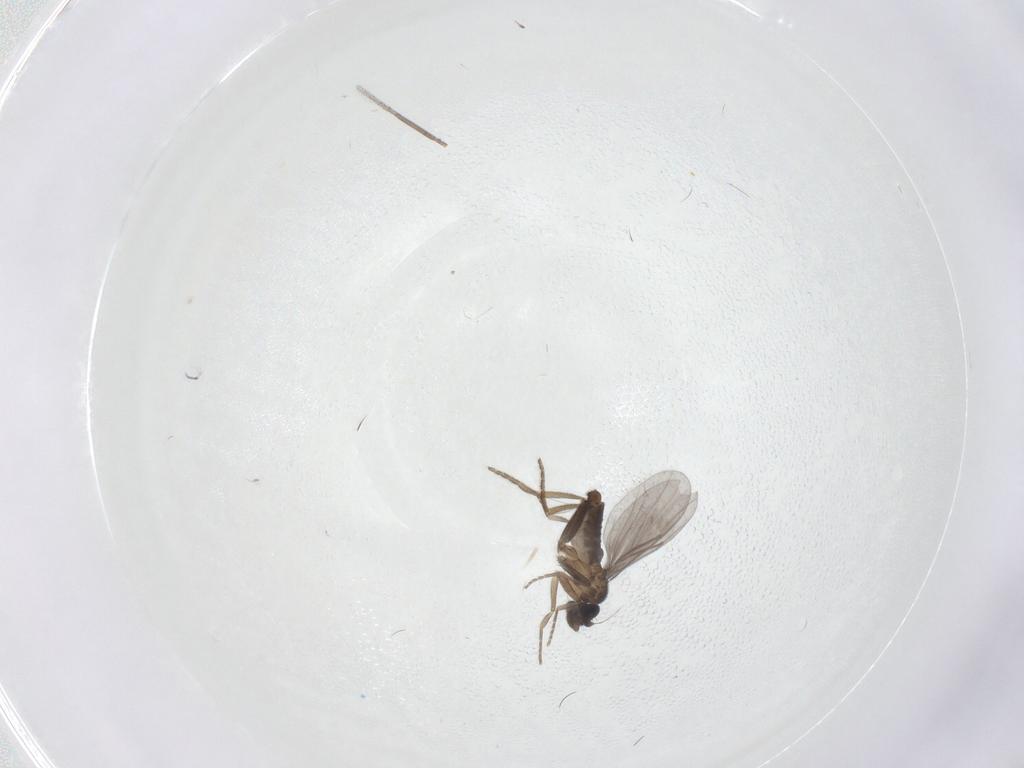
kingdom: Animalia
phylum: Arthropoda
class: Insecta
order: Diptera
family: Cecidomyiidae
